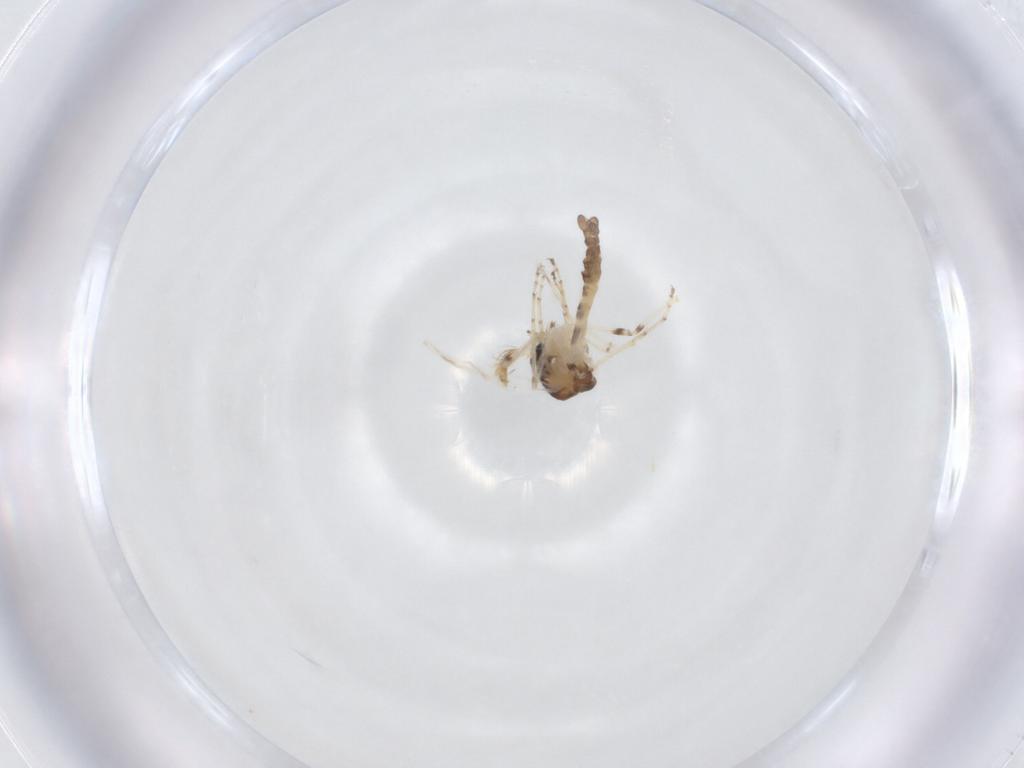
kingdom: Animalia
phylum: Arthropoda
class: Insecta
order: Diptera
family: Ceratopogonidae
